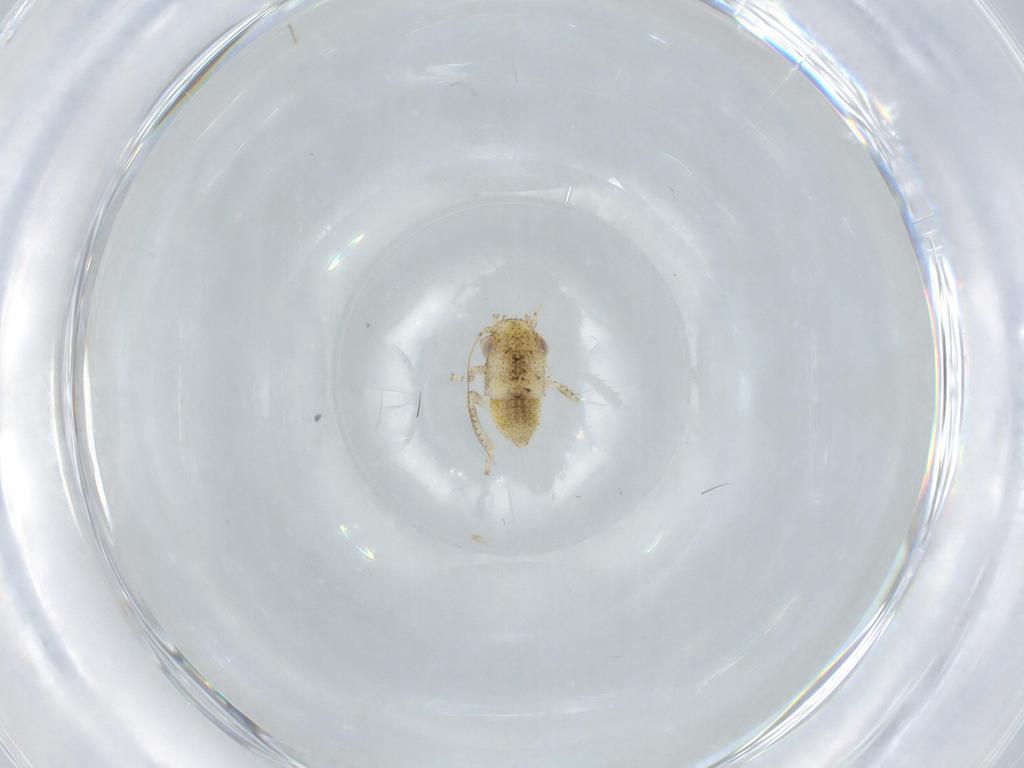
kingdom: Animalia
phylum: Arthropoda
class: Insecta
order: Hemiptera
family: Cicadellidae
